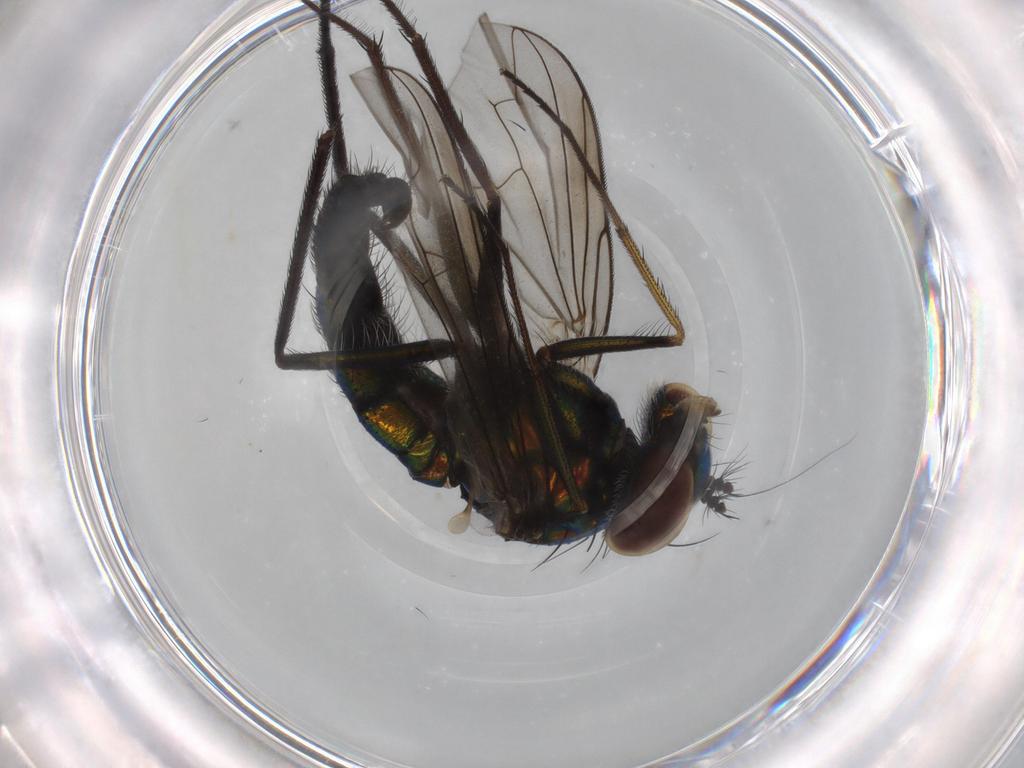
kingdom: Animalia
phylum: Arthropoda
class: Insecta
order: Diptera
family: Dolichopodidae
